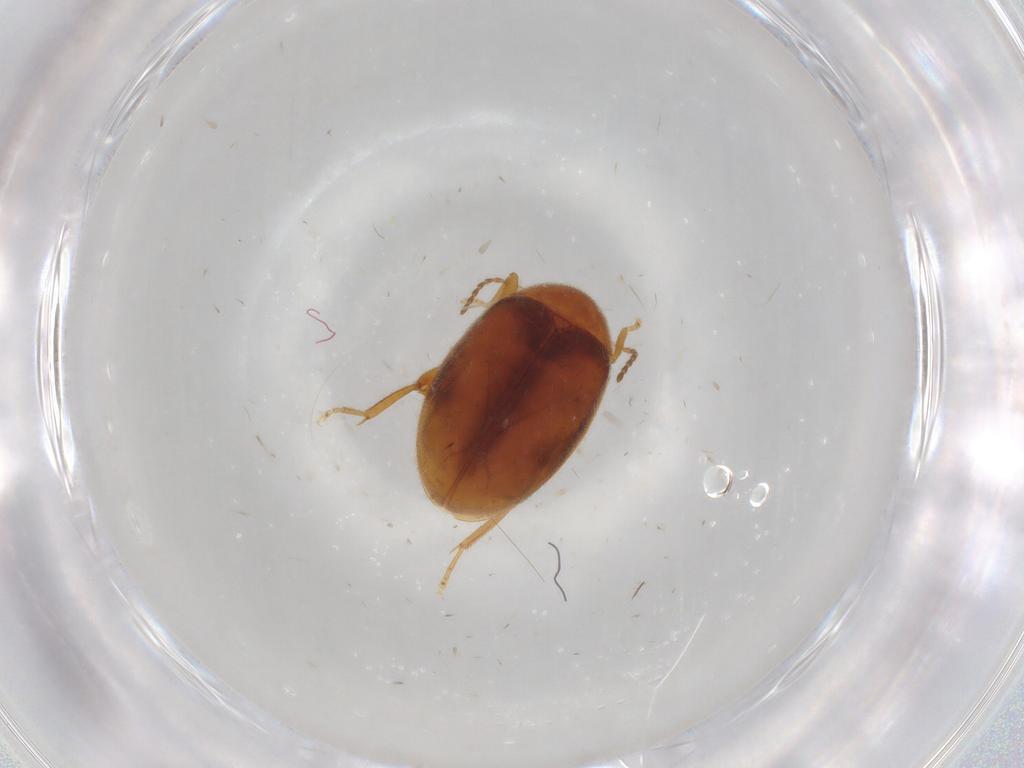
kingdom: Animalia
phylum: Arthropoda
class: Insecta
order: Coleoptera
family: Scirtidae
